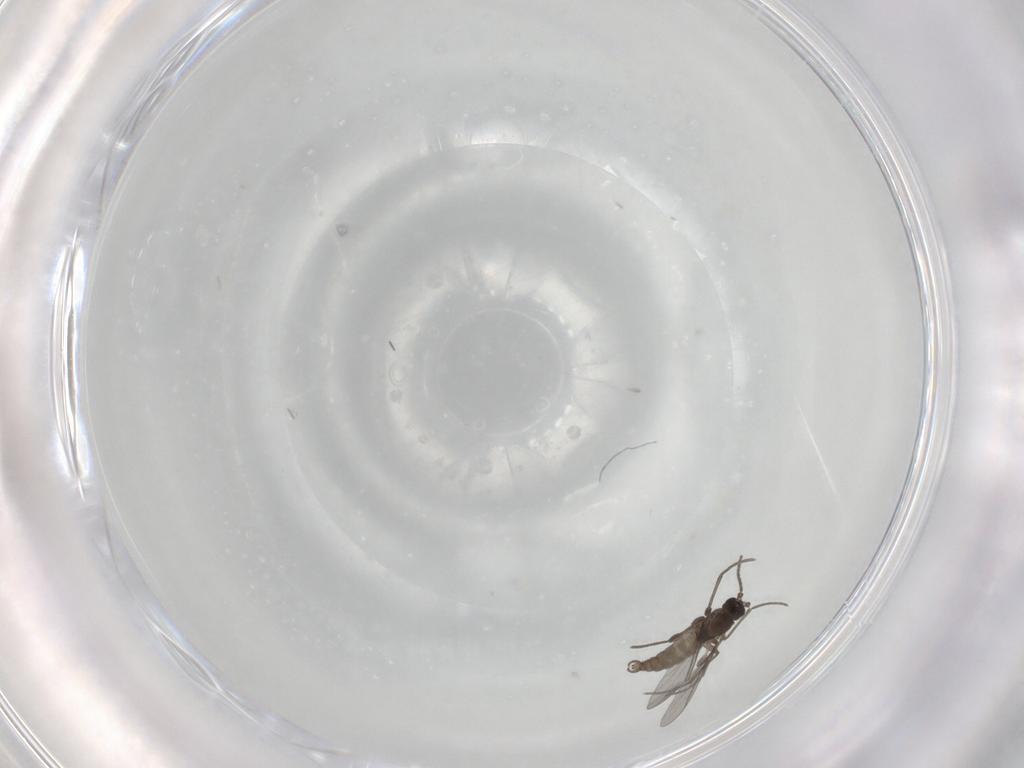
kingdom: Animalia
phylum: Arthropoda
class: Insecta
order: Diptera
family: Sciaridae
